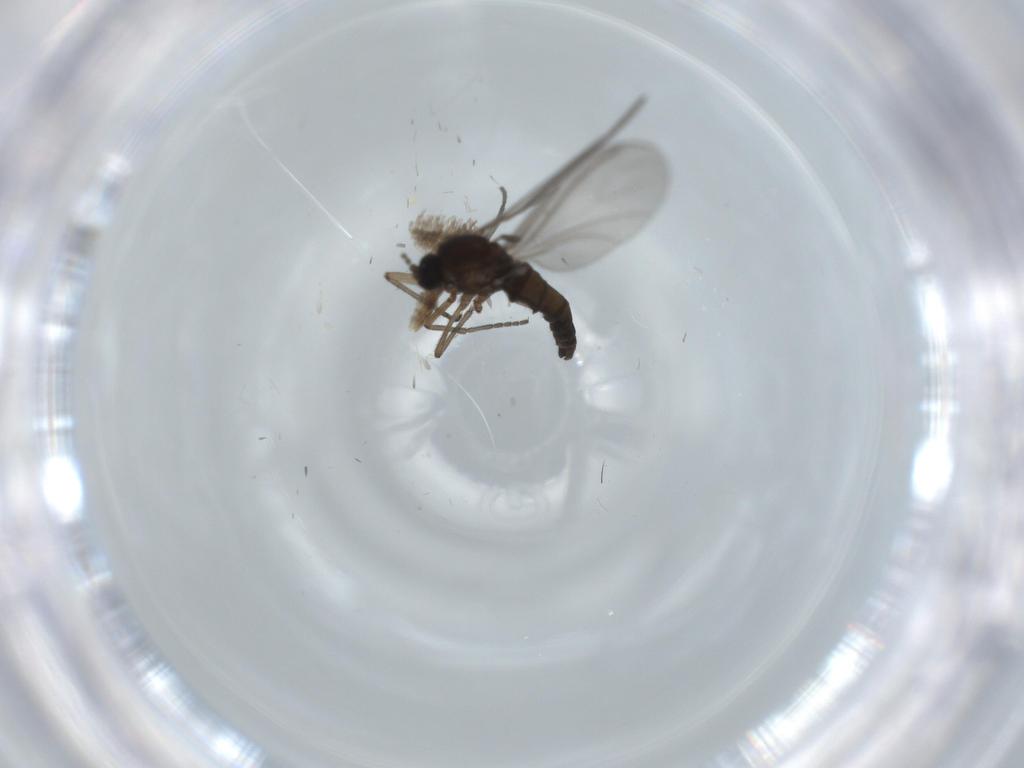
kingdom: Animalia
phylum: Arthropoda
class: Insecta
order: Diptera
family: Sciaridae
